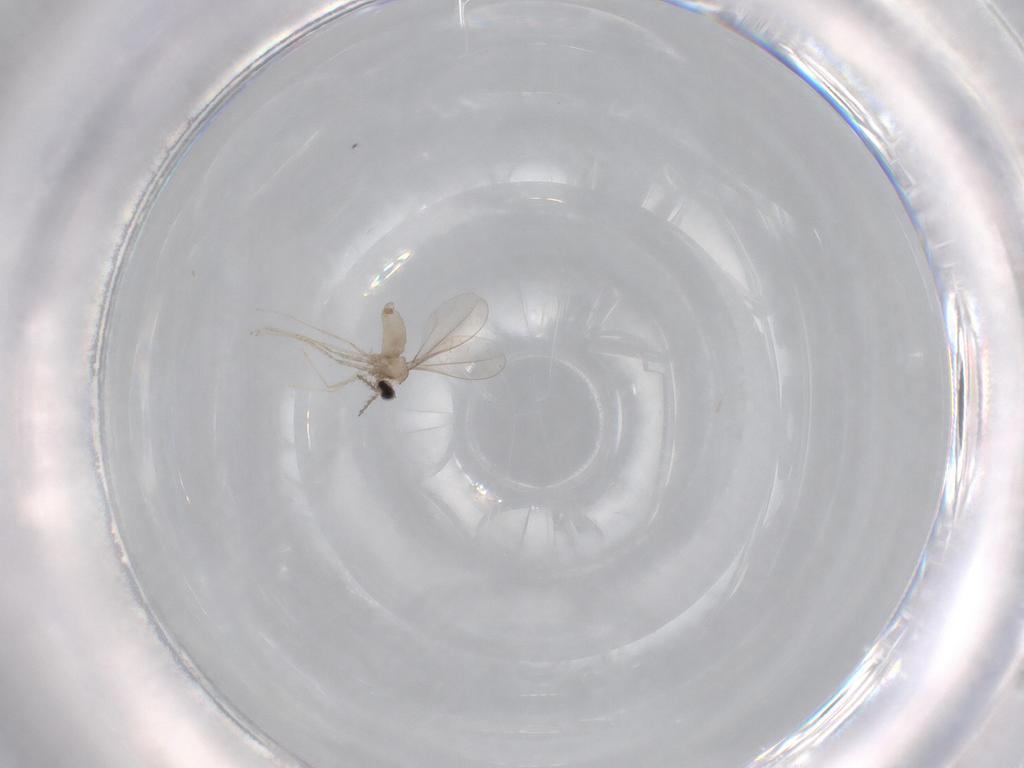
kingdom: Animalia
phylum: Arthropoda
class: Insecta
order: Diptera
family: Cecidomyiidae
